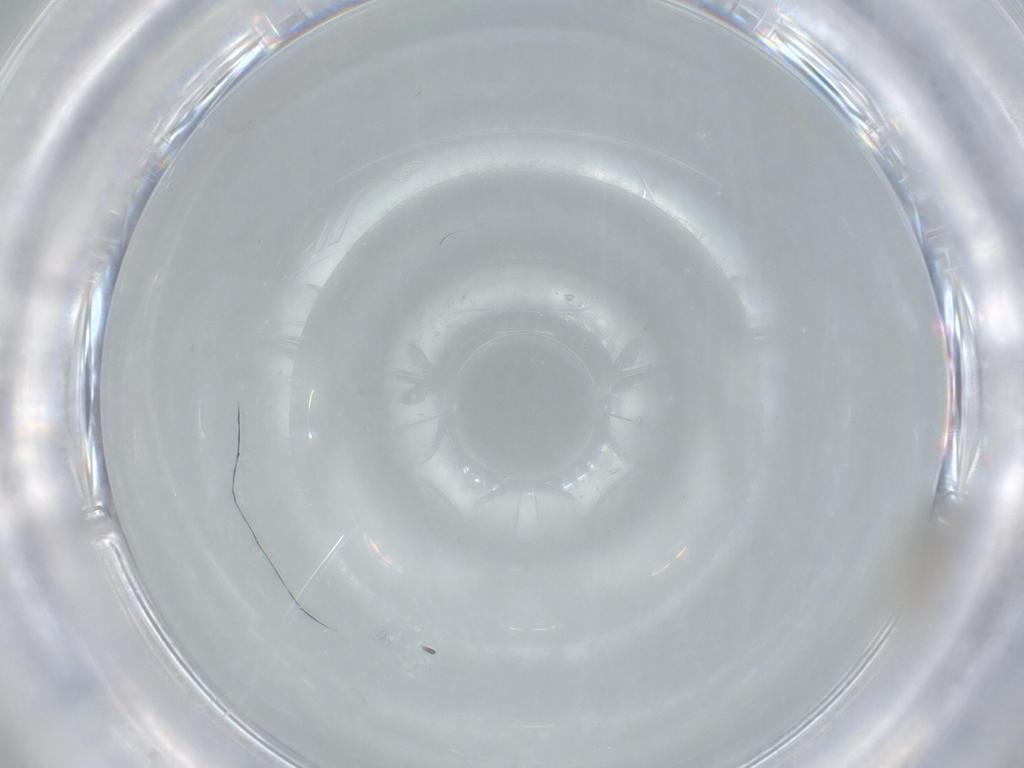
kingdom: Animalia
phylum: Arthropoda
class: Insecta
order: Diptera
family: Cecidomyiidae
